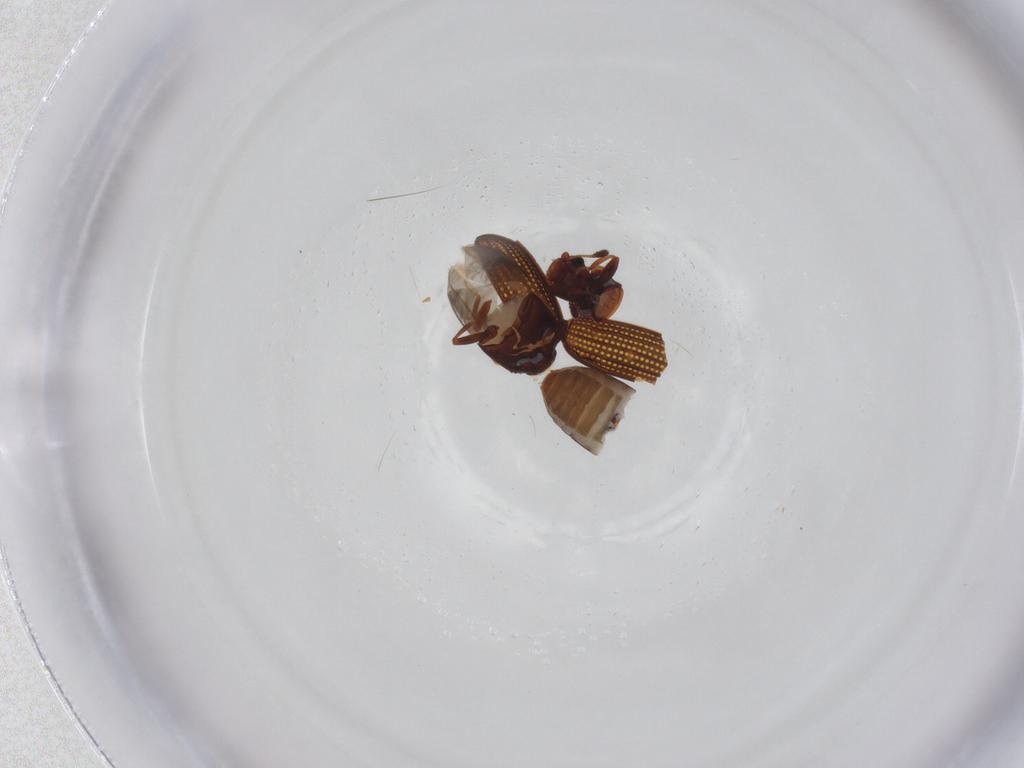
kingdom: Animalia
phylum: Arthropoda
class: Insecta
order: Coleoptera
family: Latridiidae
